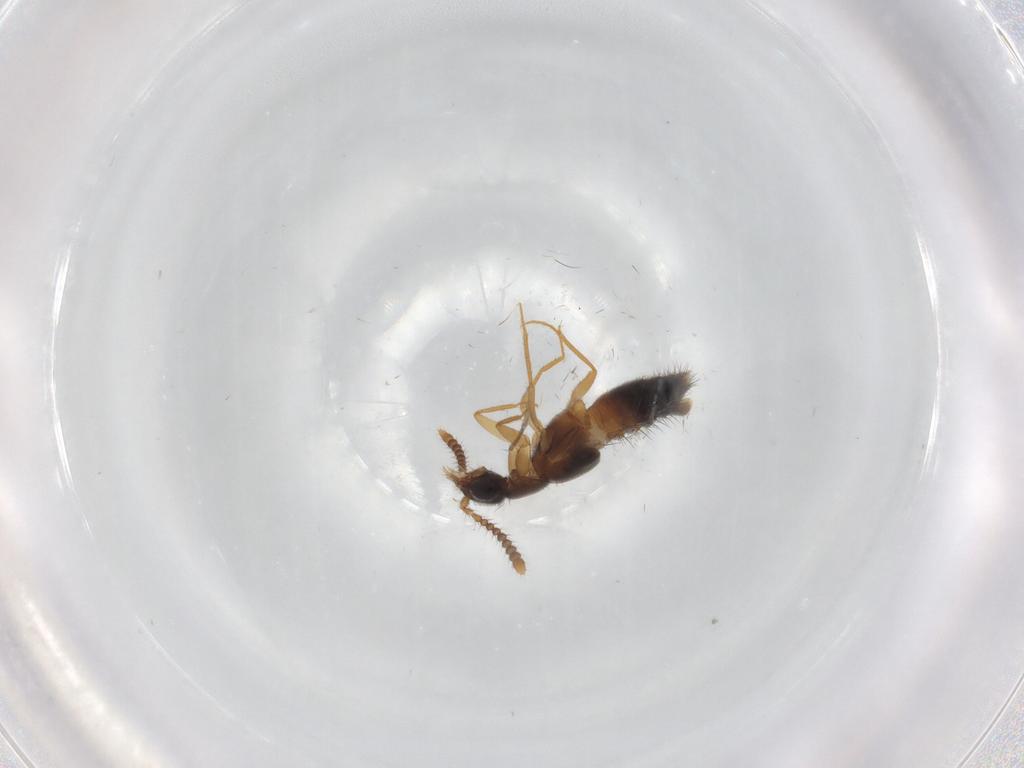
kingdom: Animalia
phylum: Arthropoda
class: Insecta
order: Coleoptera
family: Staphylinidae
